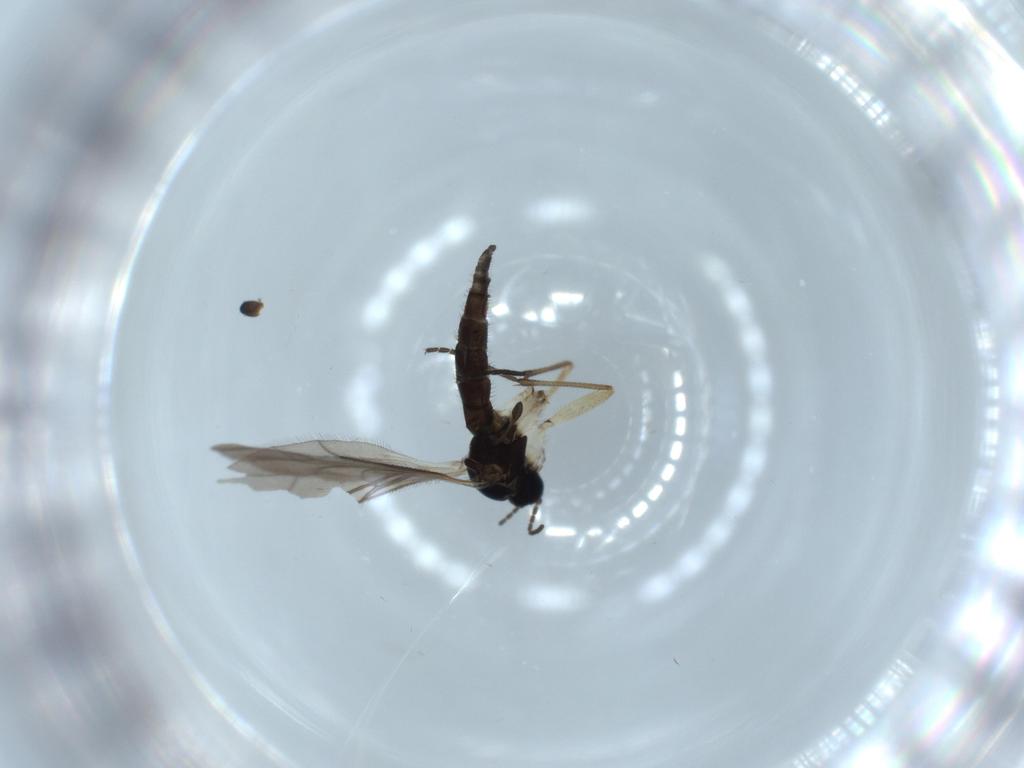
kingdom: Animalia
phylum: Arthropoda
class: Insecta
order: Diptera
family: Sciaridae
